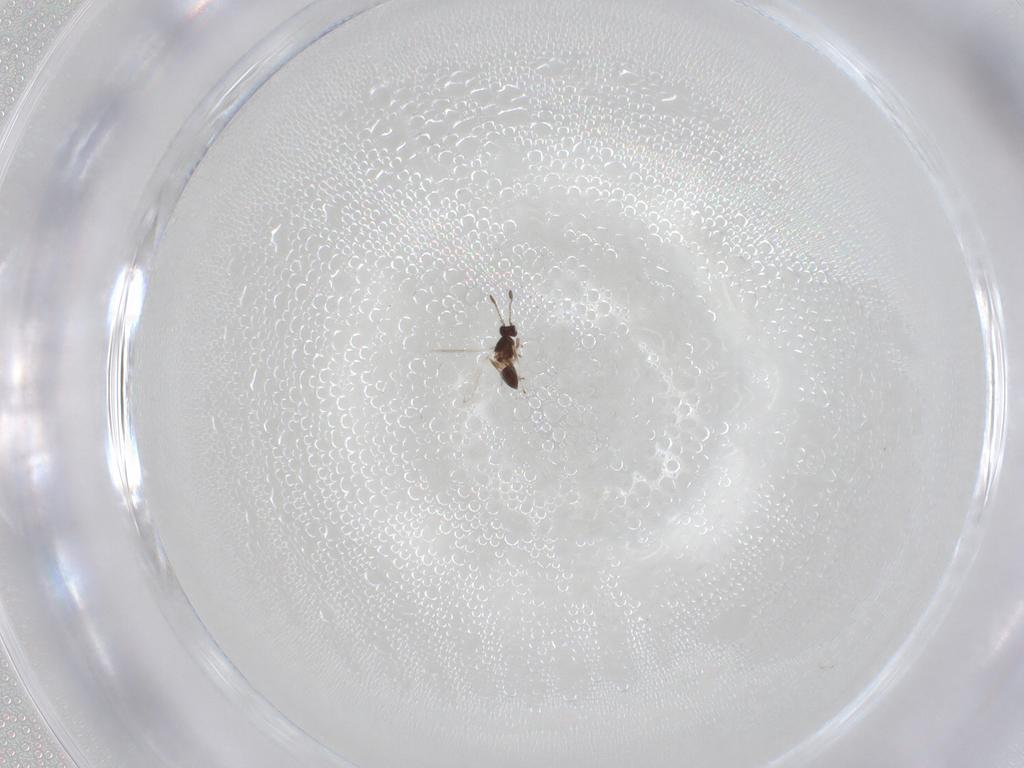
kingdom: Animalia
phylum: Arthropoda
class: Insecta
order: Hymenoptera
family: Mymaridae
